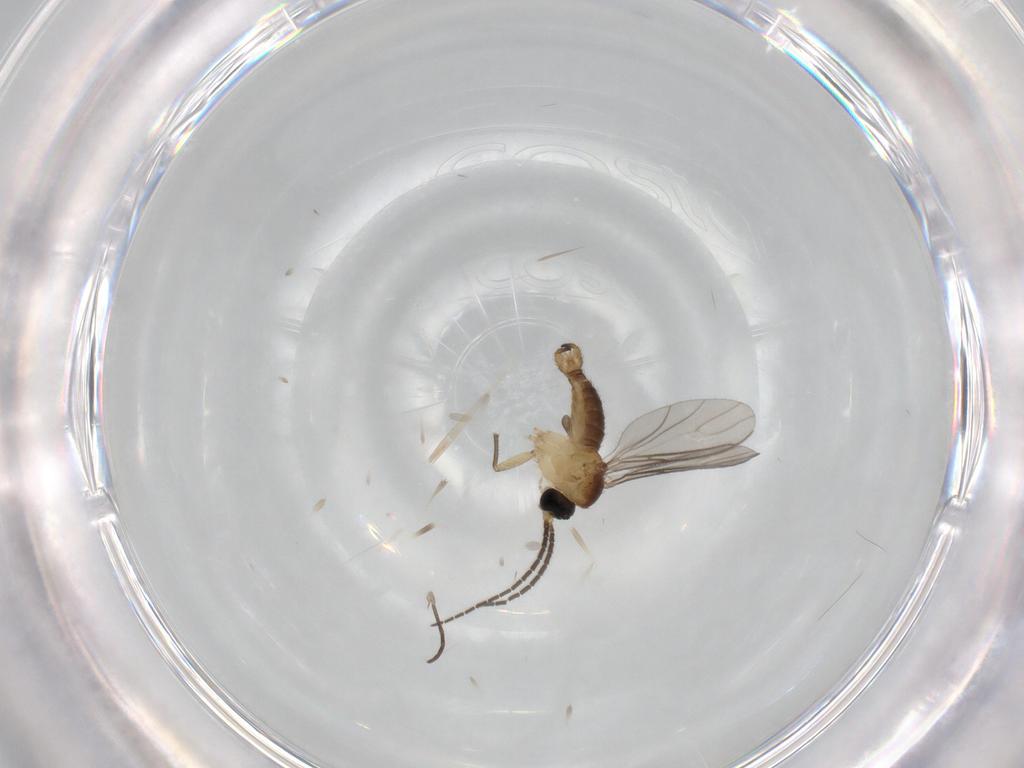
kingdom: Animalia
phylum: Arthropoda
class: Insecta
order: Diptera
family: Sciaridae
